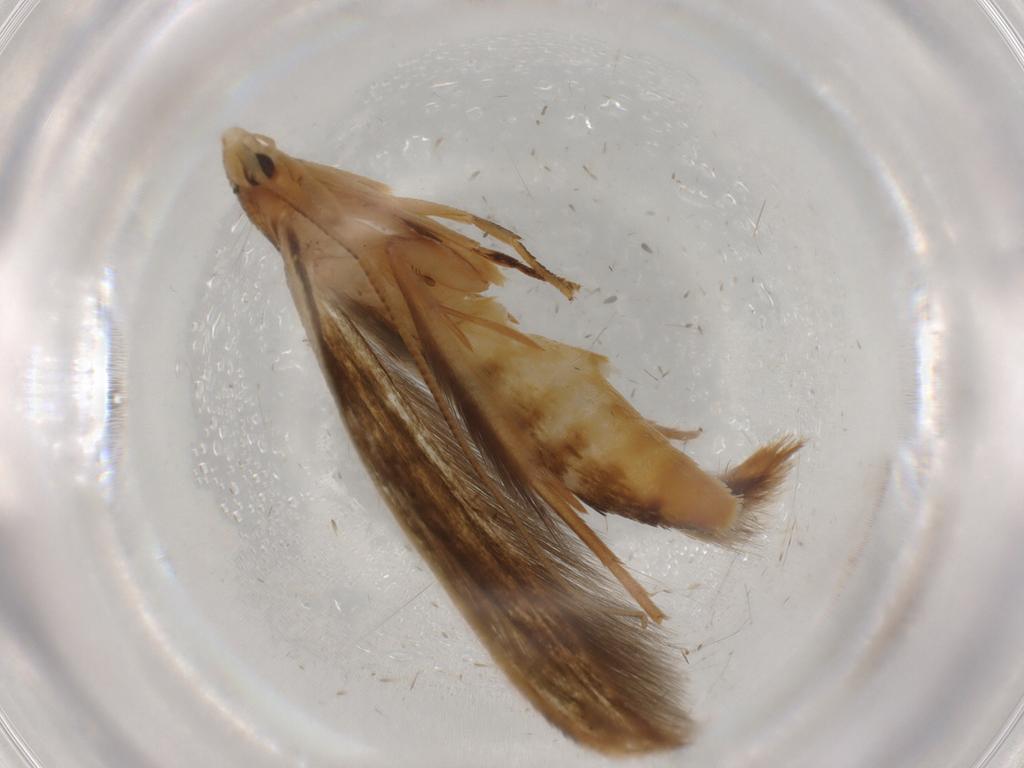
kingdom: Animalia
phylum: Arthropoda
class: Insecta
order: Lepidoptera
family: Tineidae
